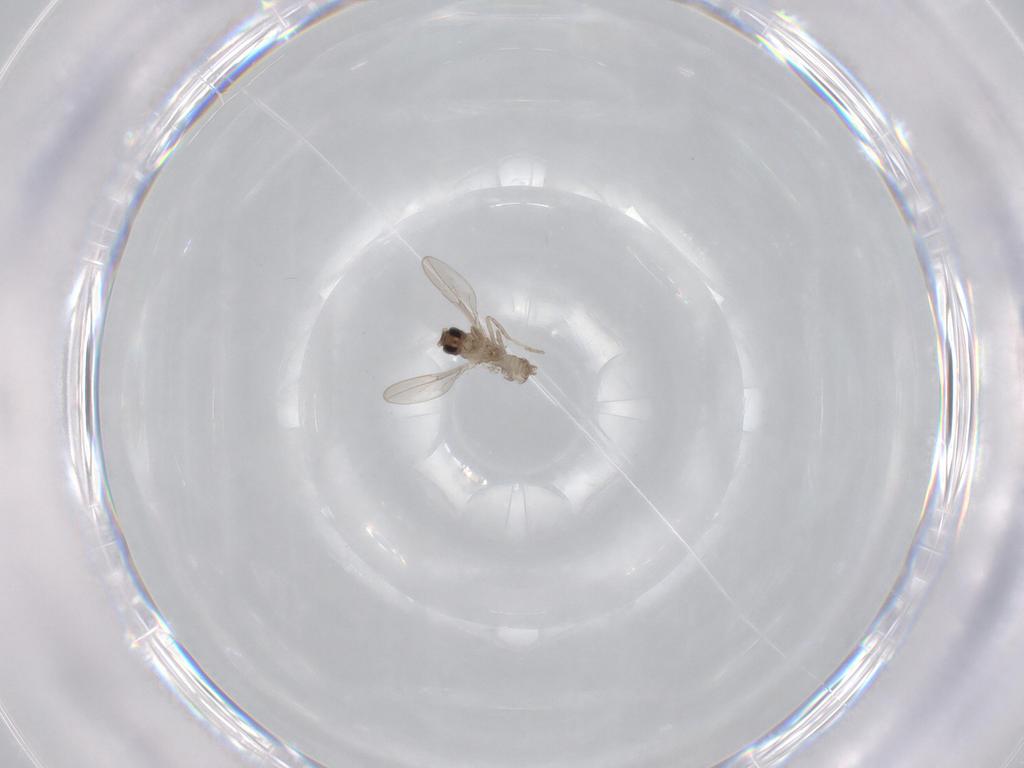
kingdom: Animalia
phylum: Arthropoda
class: Insecta
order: Diptera
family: Cecidomyiidae
